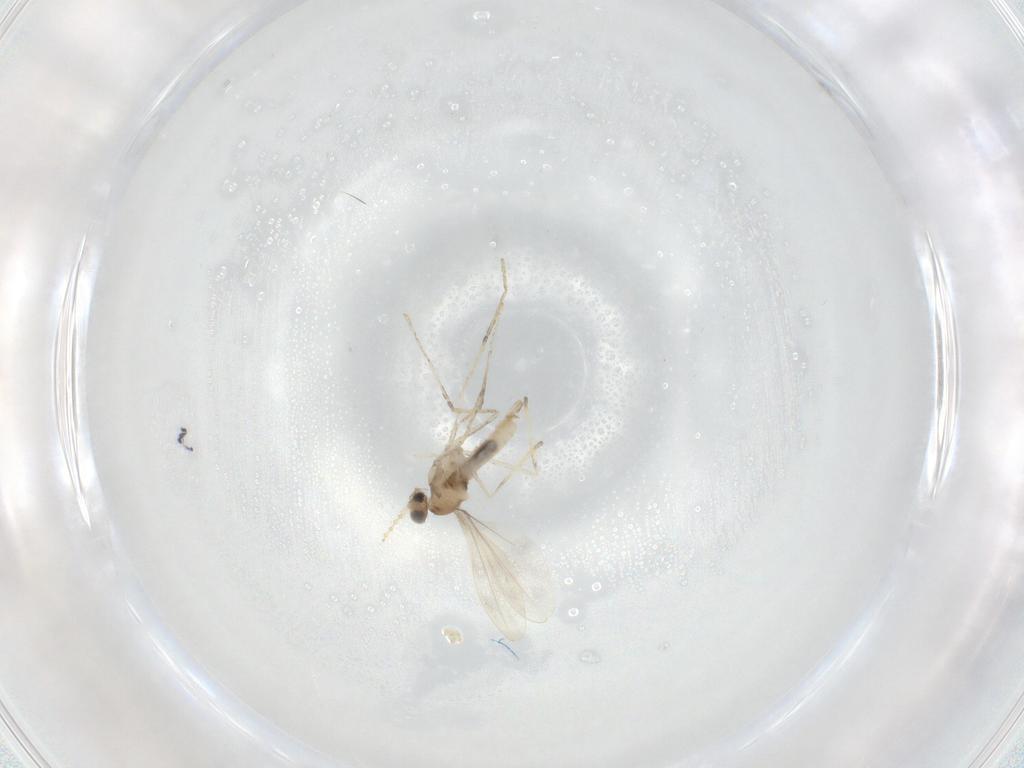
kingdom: Animalia
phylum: Arthropoda
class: Insecta
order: Diptera
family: Cecidomyiidae
